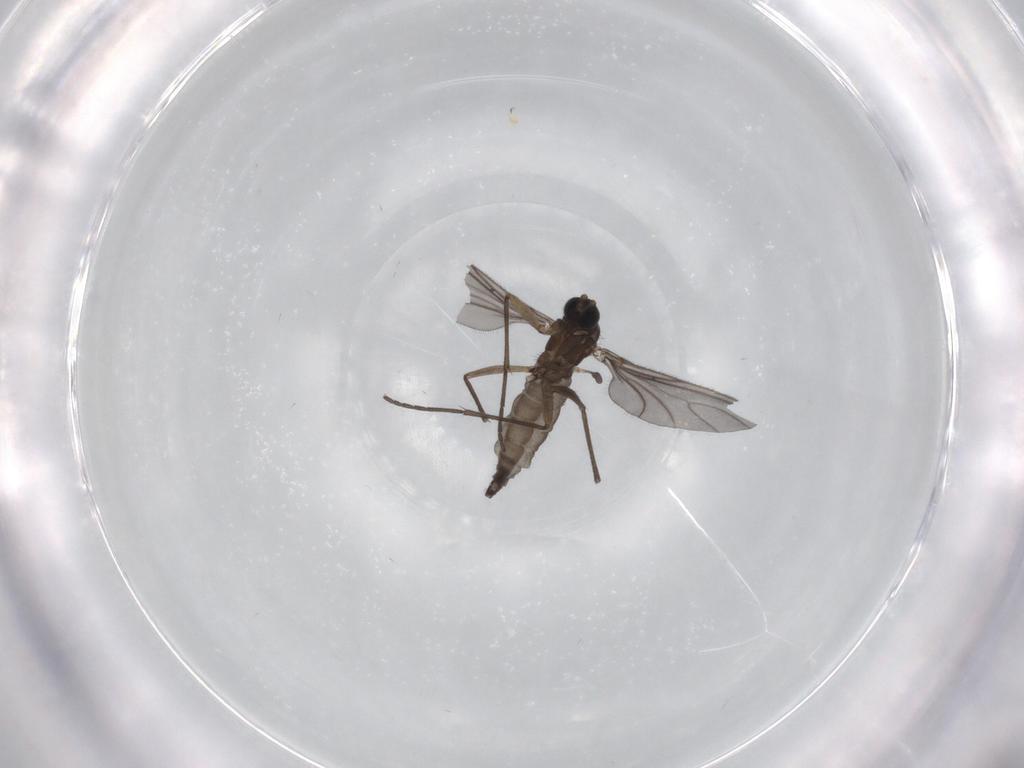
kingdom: Animalia
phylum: Arthropoda
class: Insecta
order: Diptera
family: Sciaridae
